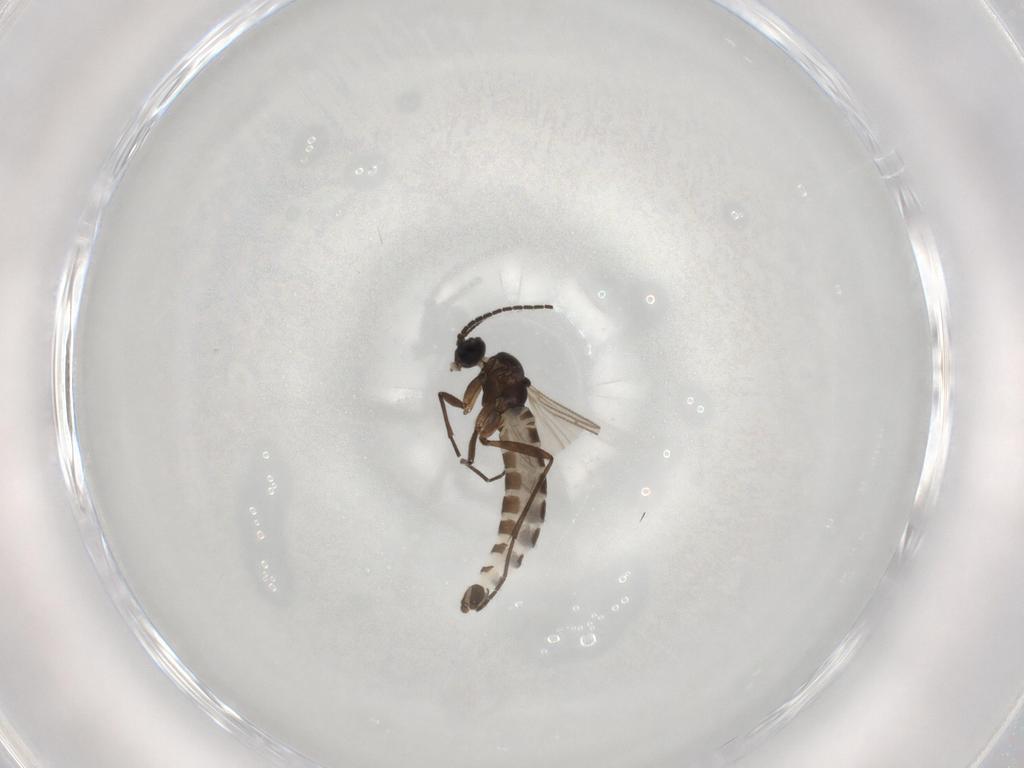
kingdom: Animalia
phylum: Arthropoda
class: Insecta
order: Diptera
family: Sciaridae
